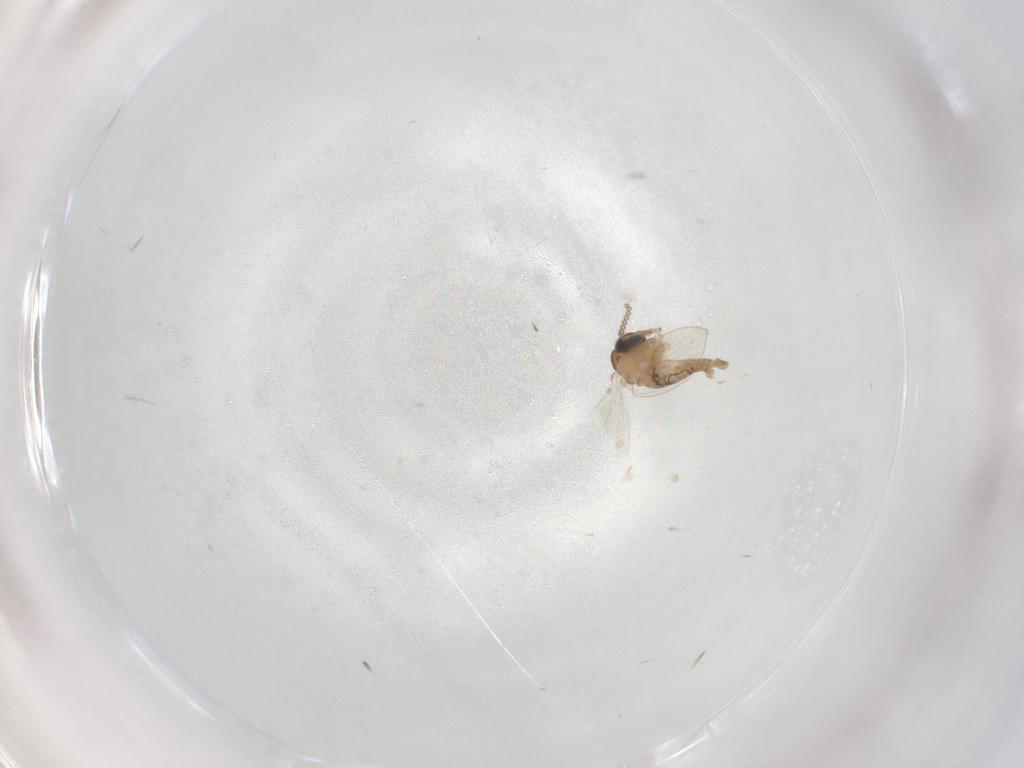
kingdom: Animalia
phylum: Arthropoda
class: Insecta
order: Diptera
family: Psychodidae
